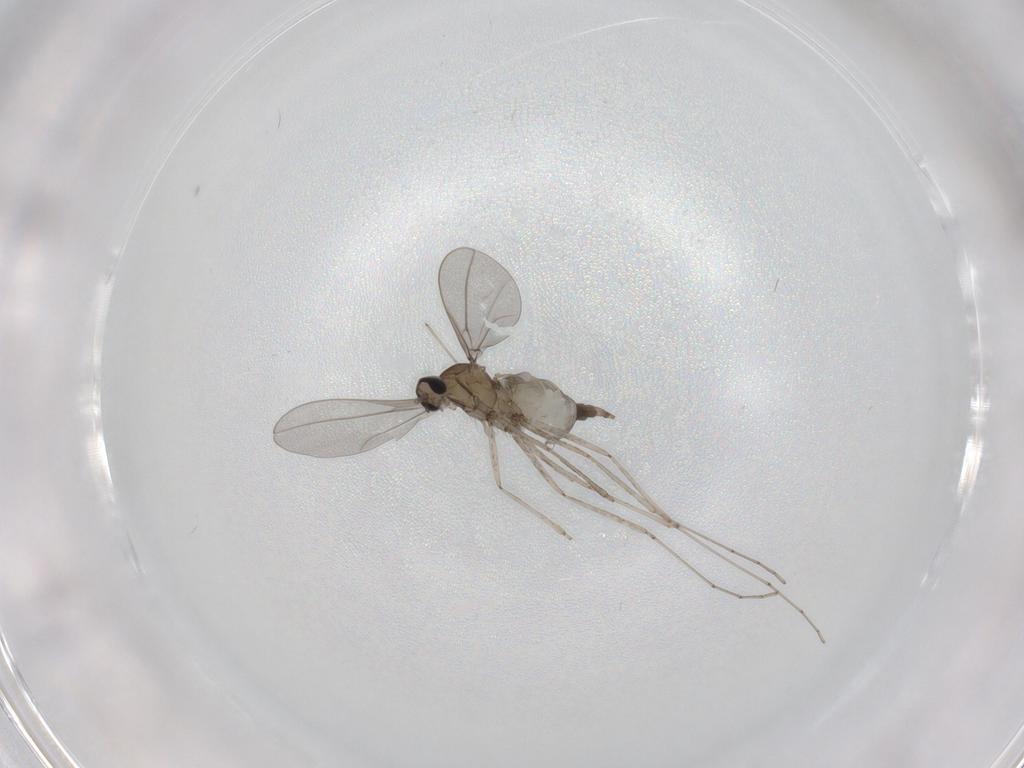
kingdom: Animalia
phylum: Arthropoda
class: Insecta
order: Diptera
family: Cecidomyiidae
